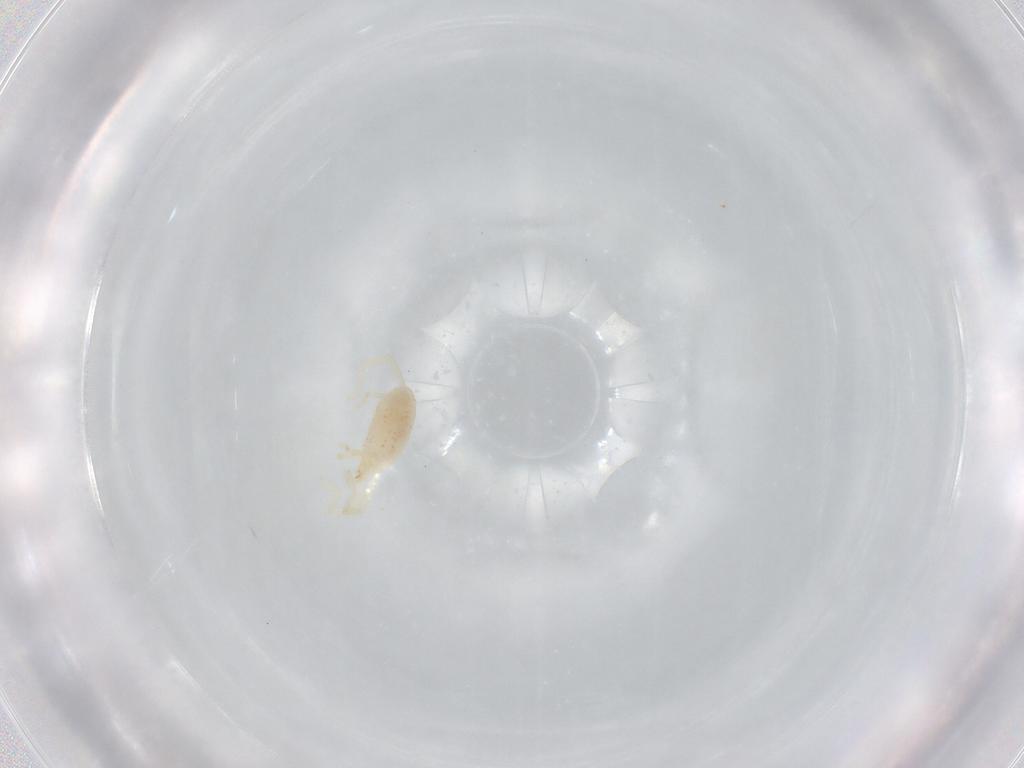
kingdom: Animalia
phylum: Arthropoda
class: Arachnida
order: Trombidiformes
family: Erythraeidae
